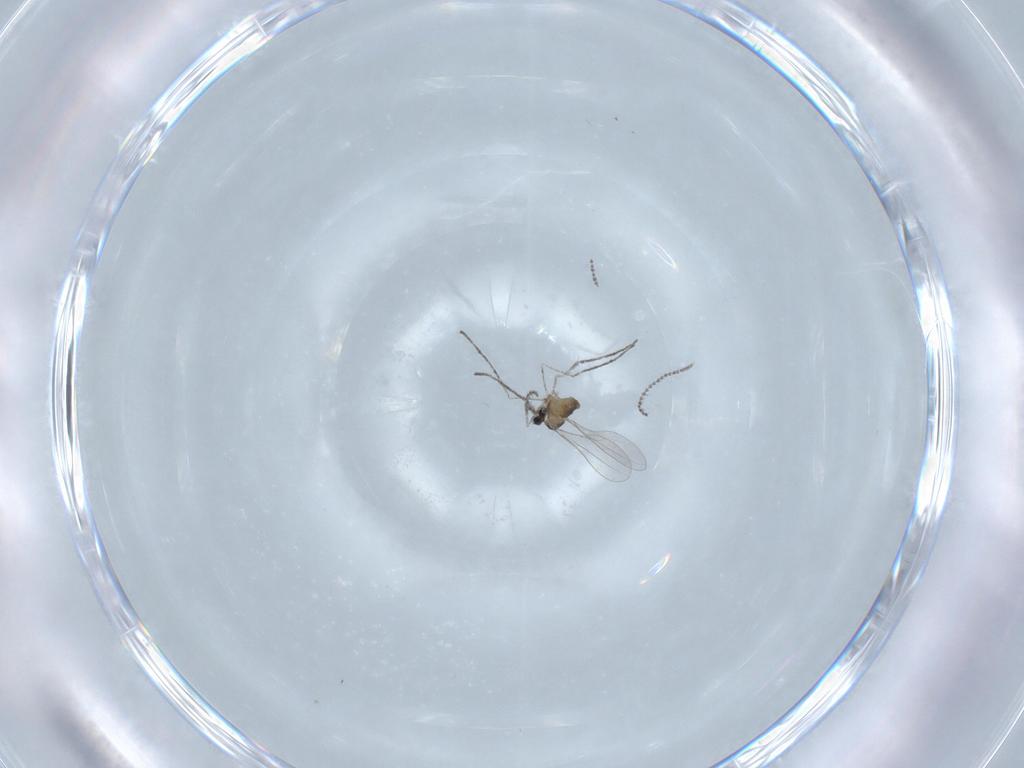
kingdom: Animalia
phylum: Arthropoda
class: Insecta
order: Diptera
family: Cecidomyiidae
